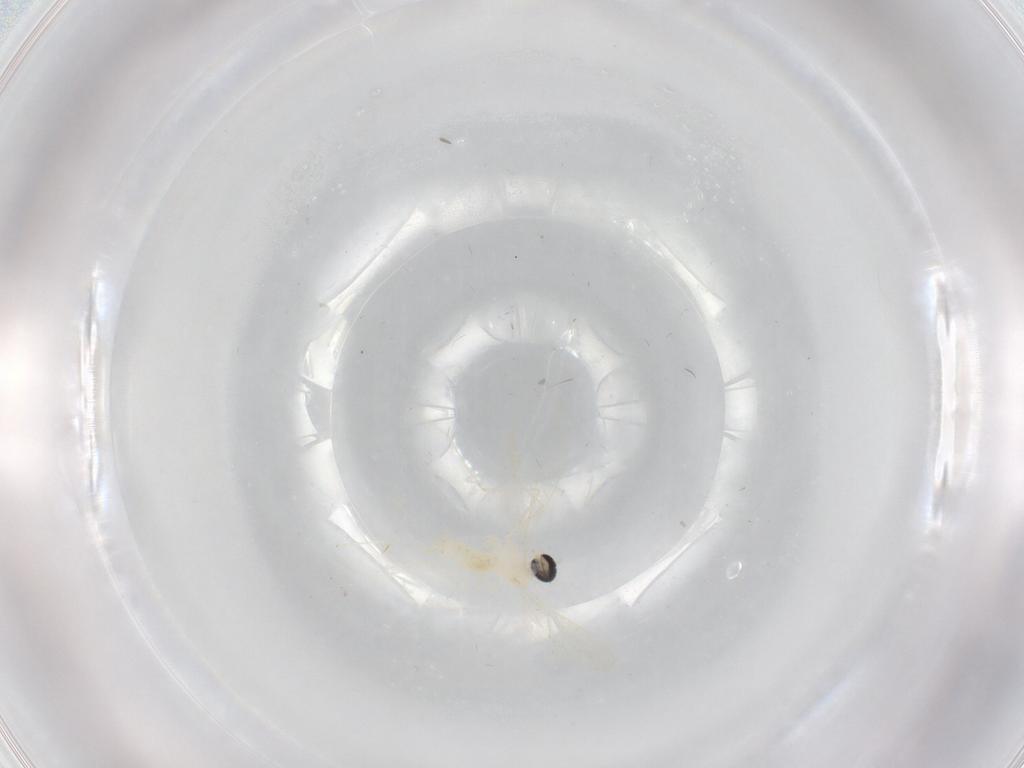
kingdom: Animalia
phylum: Arthropoda
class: Insecta
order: Diptera
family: Cecidomyiidae
